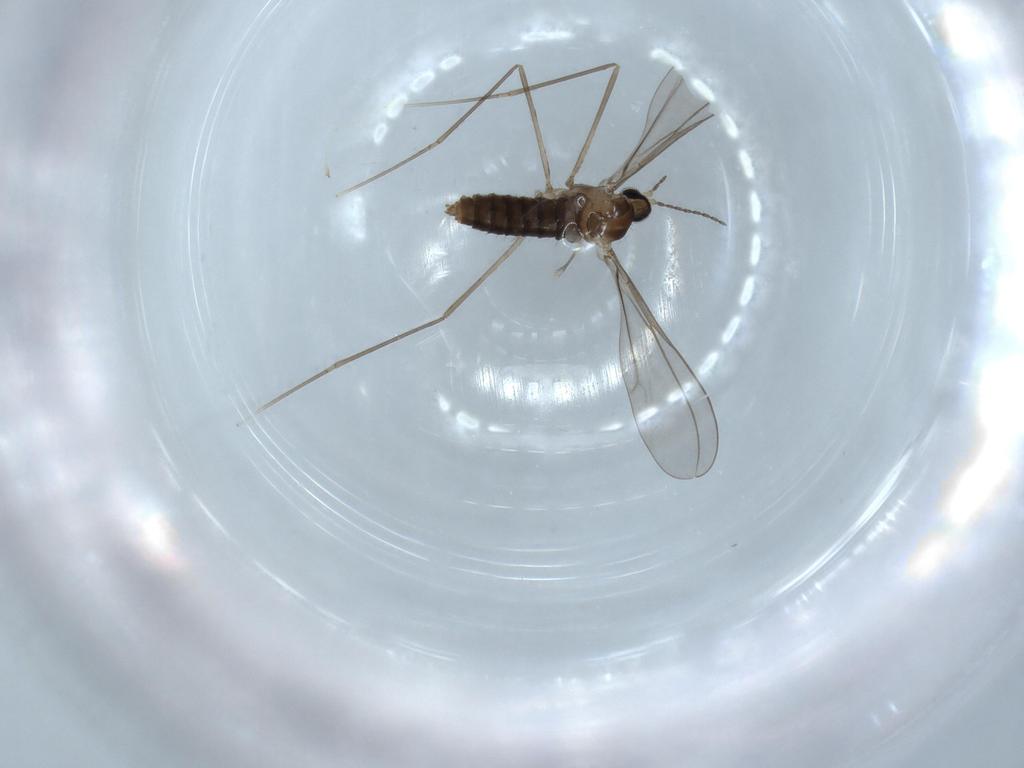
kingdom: Animalia
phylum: Arthropoda
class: Insecta
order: Diptera
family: Cecidomyiidae
